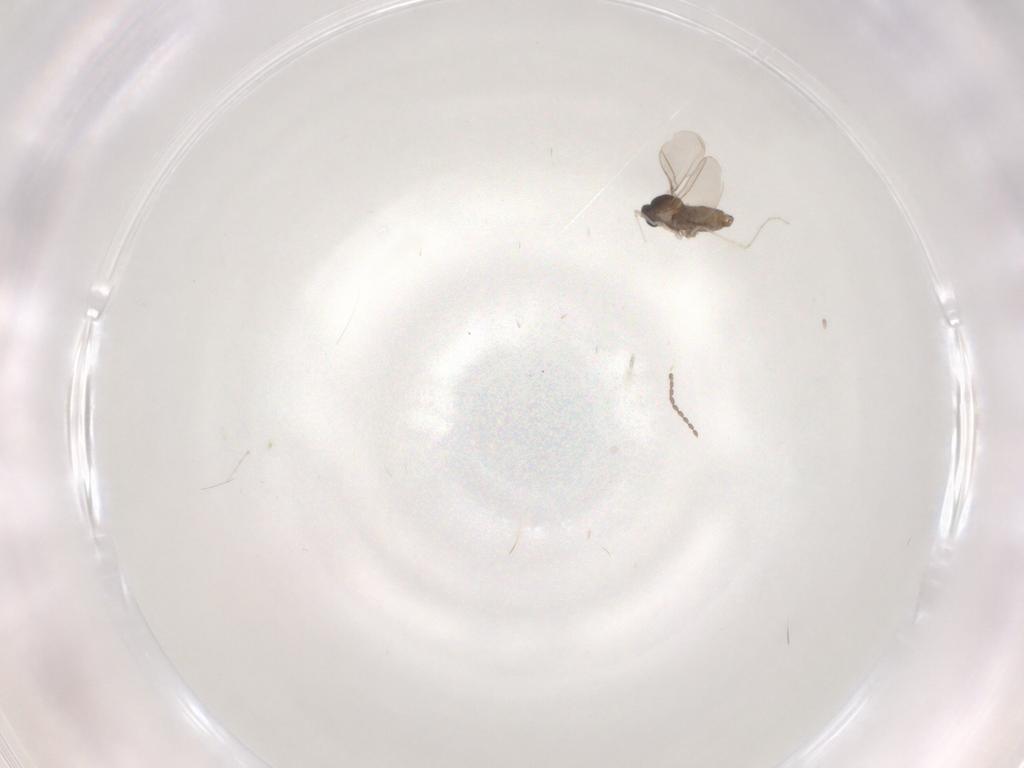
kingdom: Animalia
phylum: Arthropoda
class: Insecta
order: Diptera
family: Cecidomyiidae
